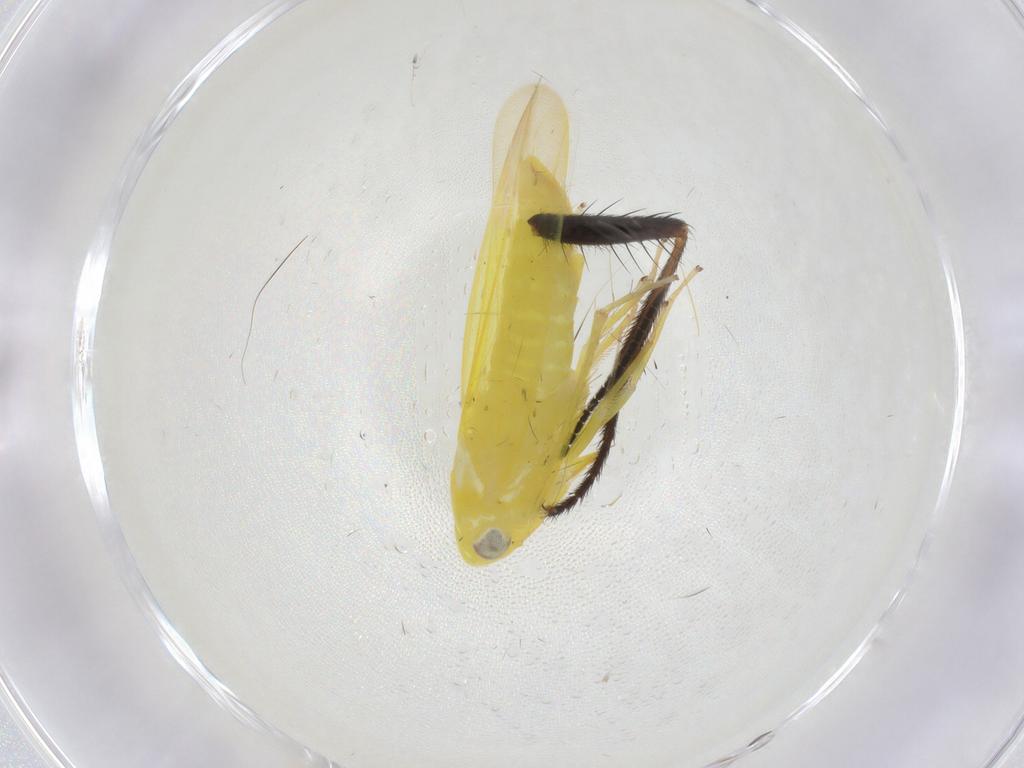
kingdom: Animalia
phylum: Arthropoda
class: Insecta
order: Hemiptera
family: Cicadellidae
